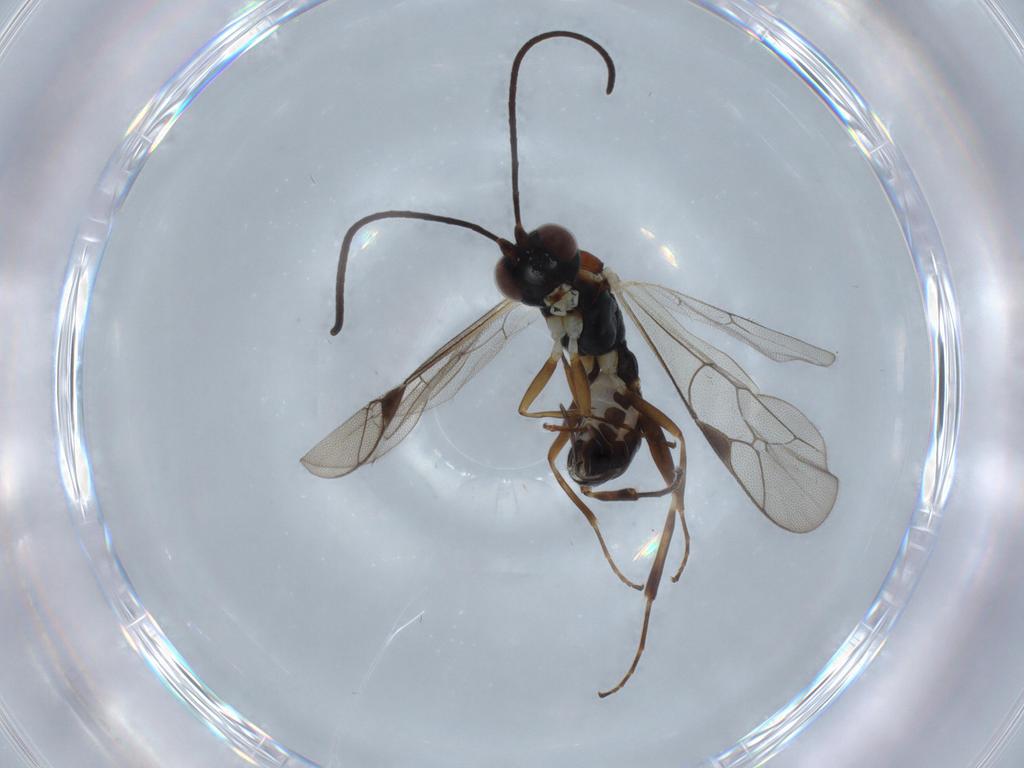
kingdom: Animalia
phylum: Arthropoda
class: Insecta
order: Hymenoptera
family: Ichneumonidae
